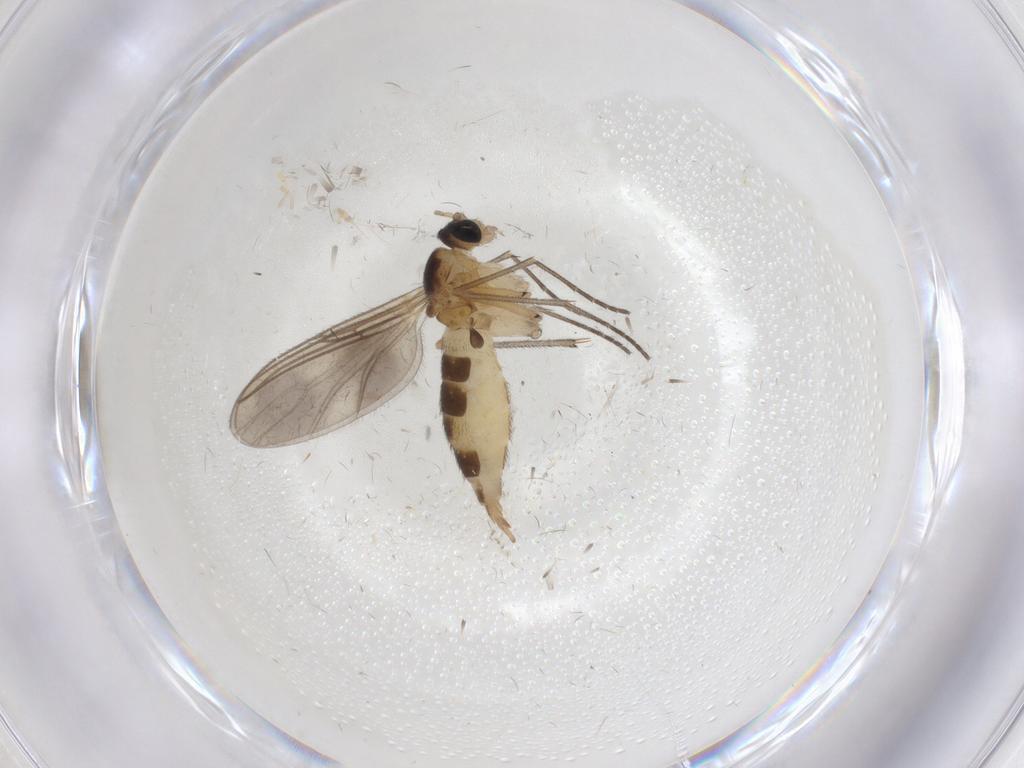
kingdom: Animalia
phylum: Arthropoda
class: Insecta
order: Diptera
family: Sciaridae
